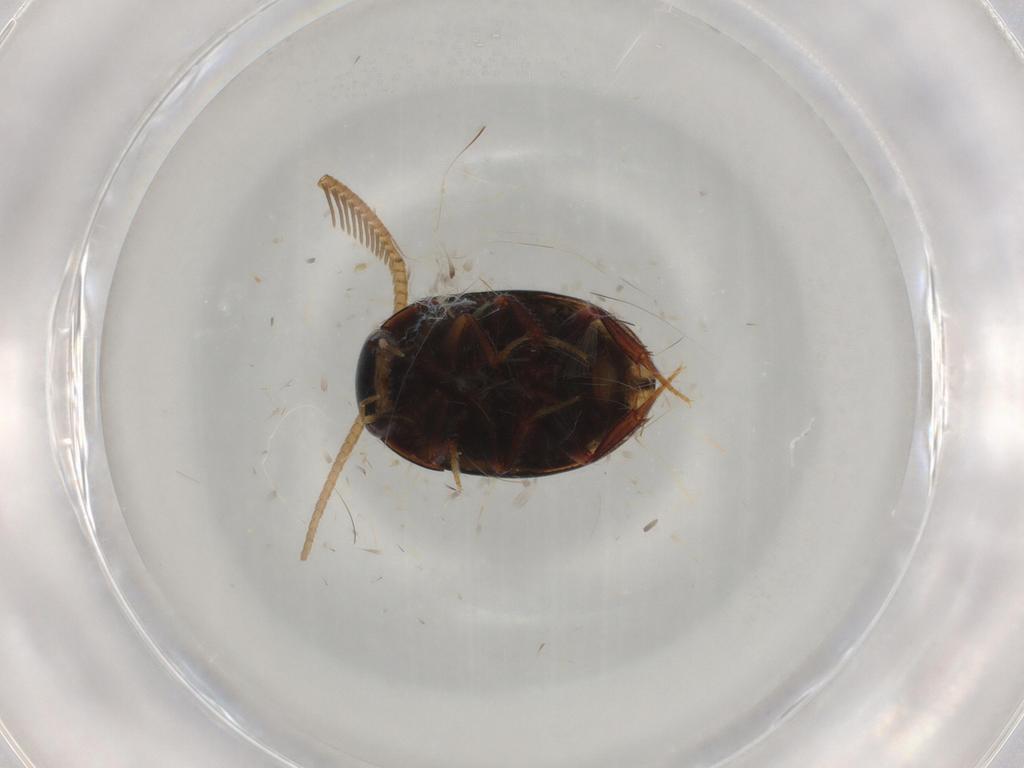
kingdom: Animalia
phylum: Arthropoda
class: Insecta
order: Coleoptera
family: Hydrophilidae
